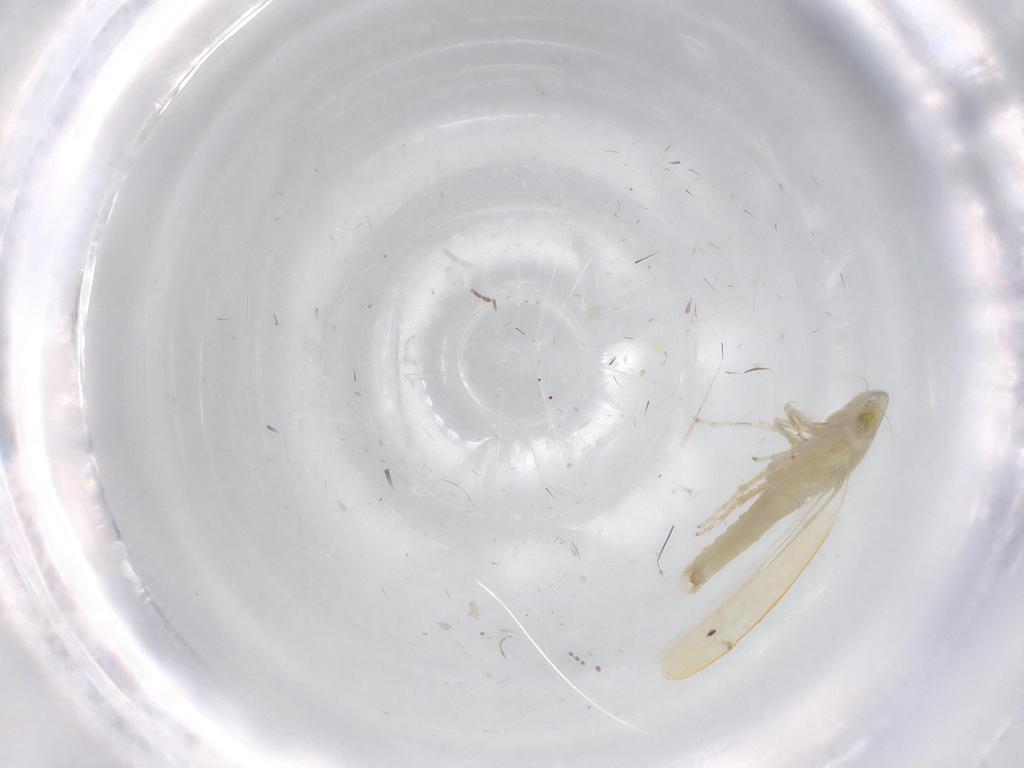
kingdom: Animalia
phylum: Arthropoda
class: Insecta
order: Hemiptera
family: Cicadellidae
